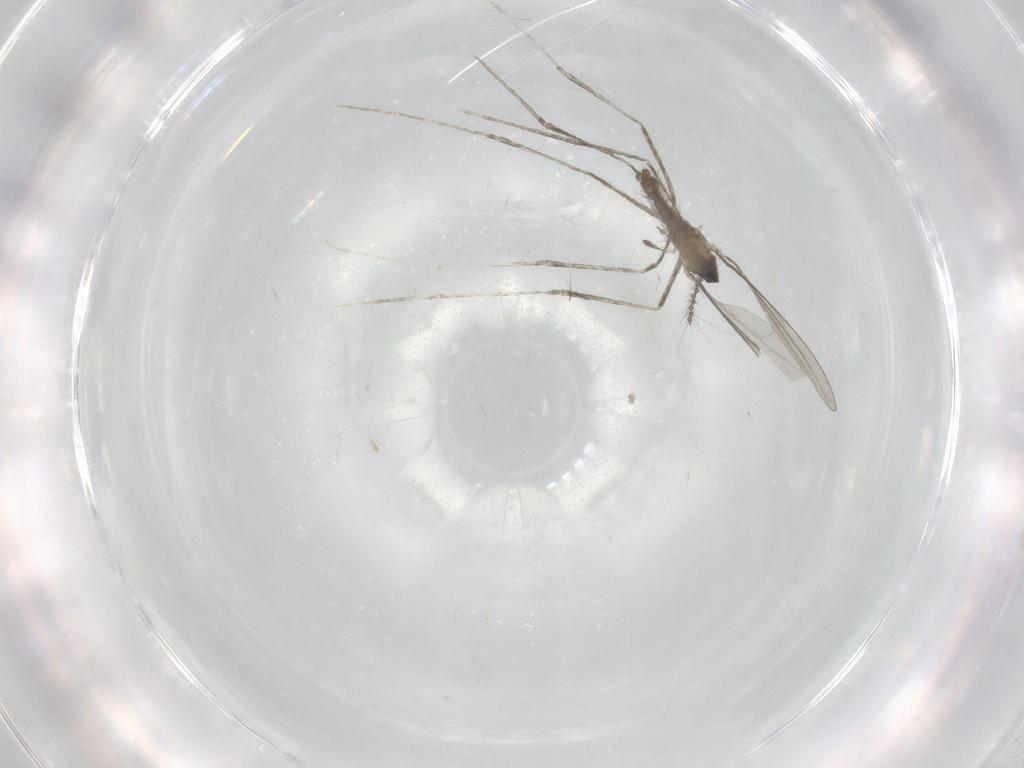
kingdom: Animalia
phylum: Arthropoda
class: Insecta
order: Diptera
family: Cecidomyiidae
